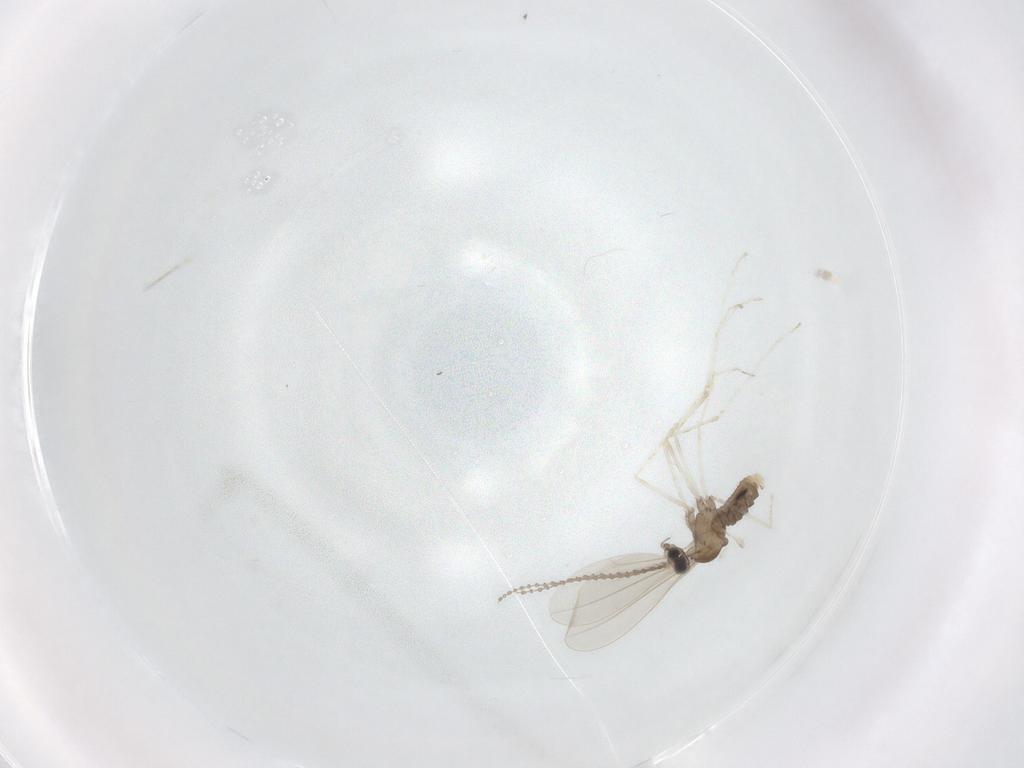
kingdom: Animalia
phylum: Arthropoda
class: Insecta
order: Diptera
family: Cecidomyiidae
